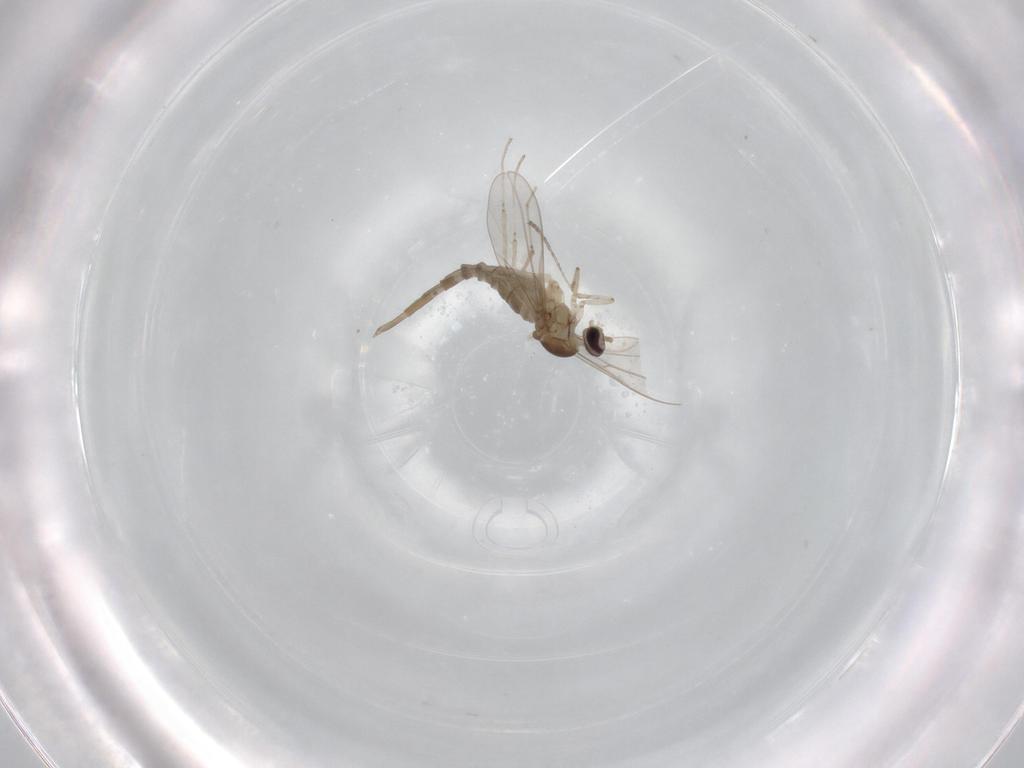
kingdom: Animalia
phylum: Arthropoda
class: Insecta
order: Diptera
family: Cecidomyiidae
